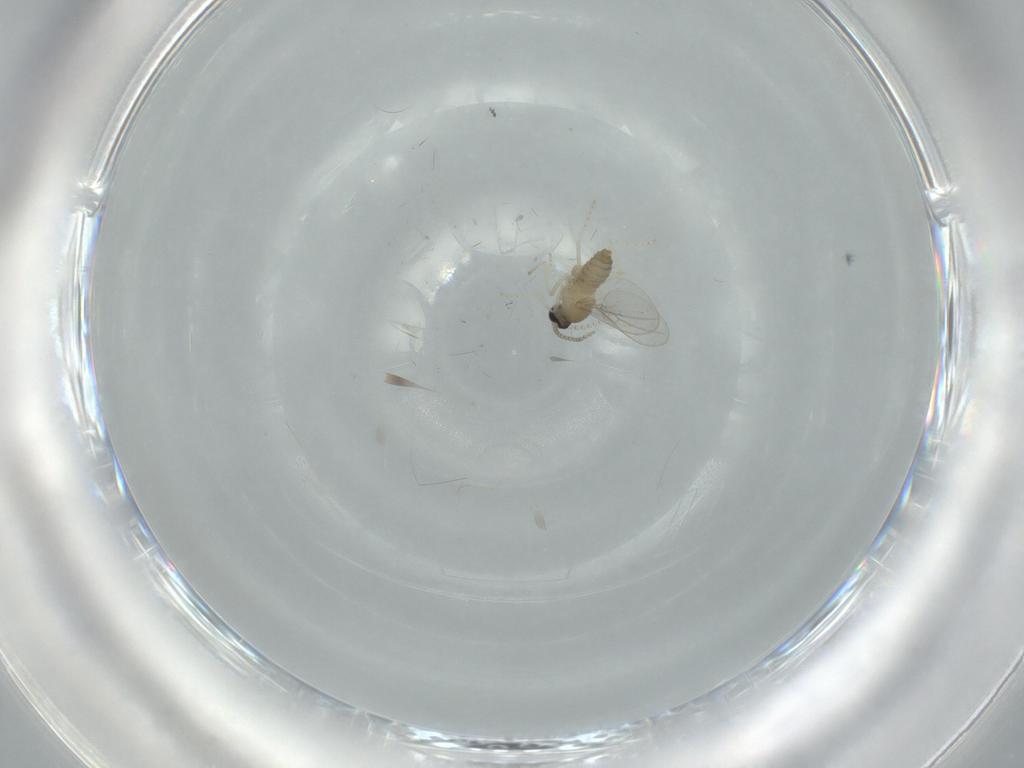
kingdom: Animalia
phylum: Arthropoda
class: Insecta
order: Diptera
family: Cecidomyiidae
